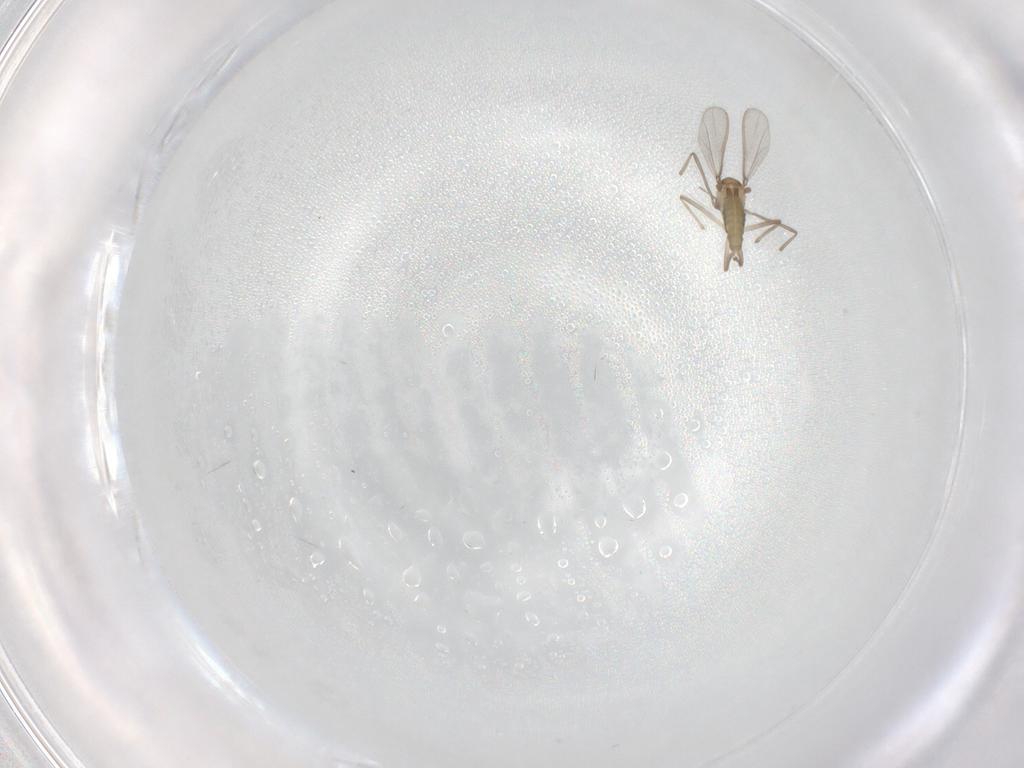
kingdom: Animalia
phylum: Arthropoda
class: Insecta
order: Diptera
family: Chironomidae
